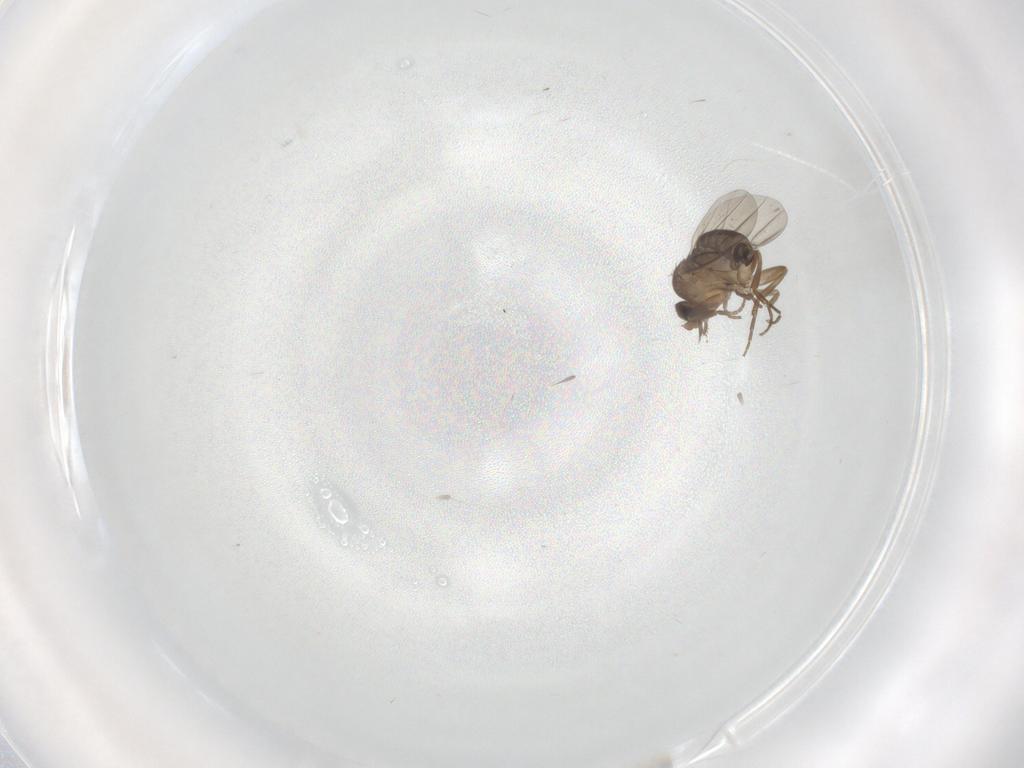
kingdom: Animalia
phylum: Arthropoda
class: Insecta
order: Diptera
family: Phoridae
